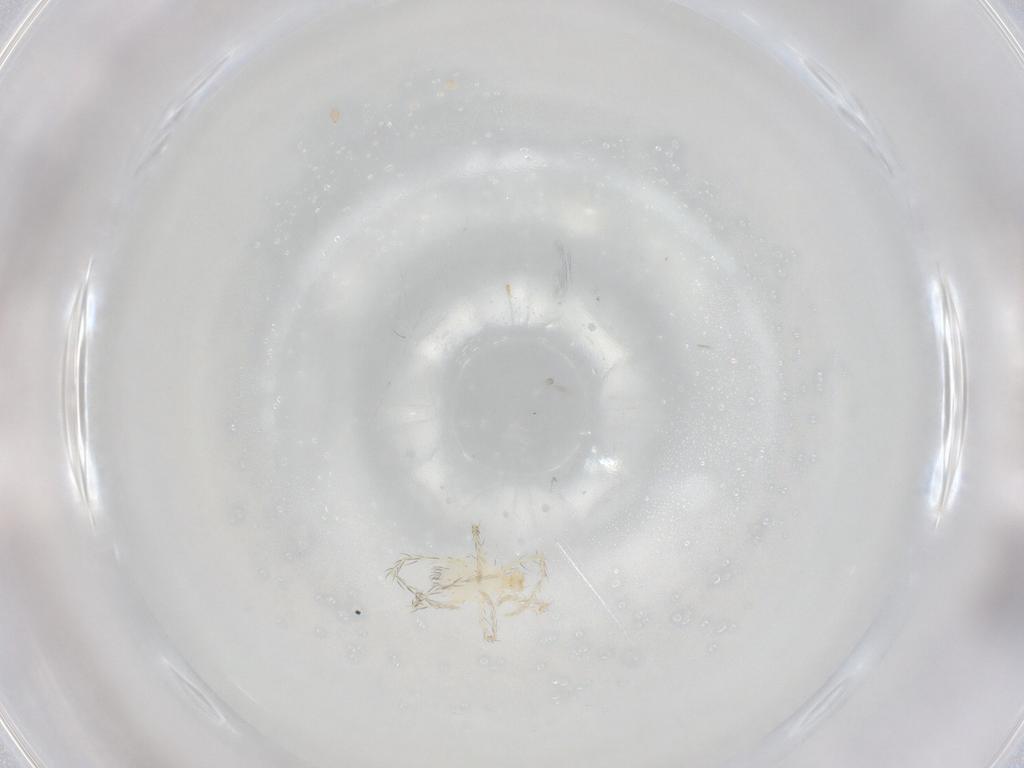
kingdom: Animalia
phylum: Arthropoda
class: Arachnida
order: Trombidiformes
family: Erythraeidae
